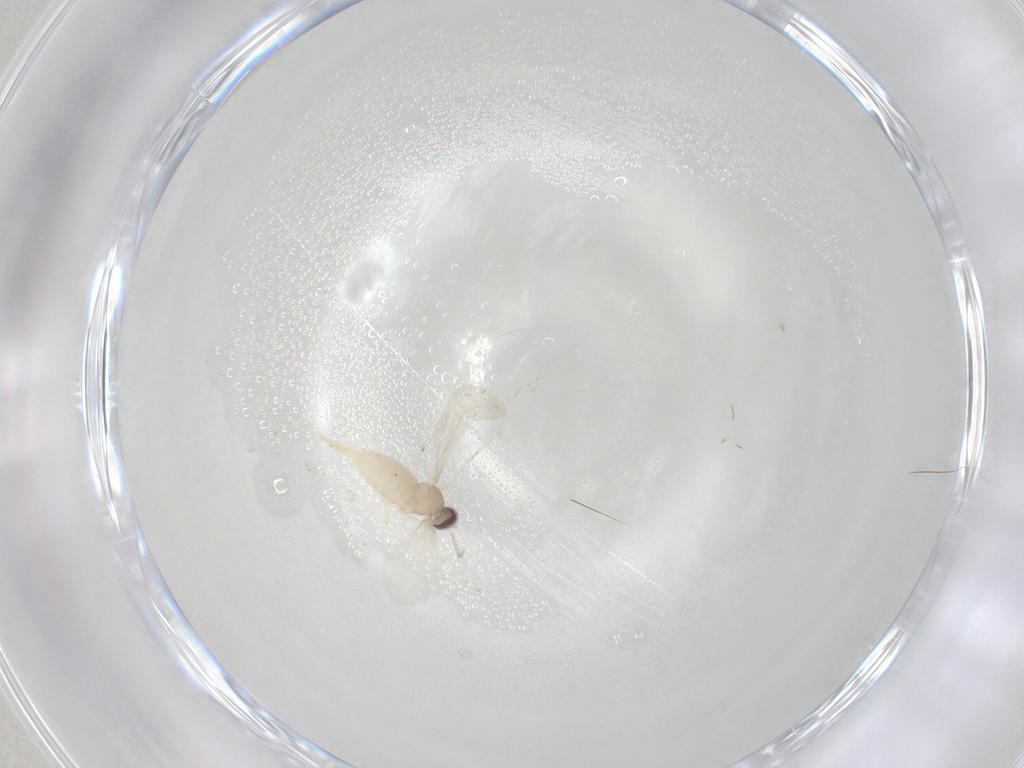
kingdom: Animalia
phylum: Arthropoda
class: Insecta
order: Diptera
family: Cecidomyiidae
